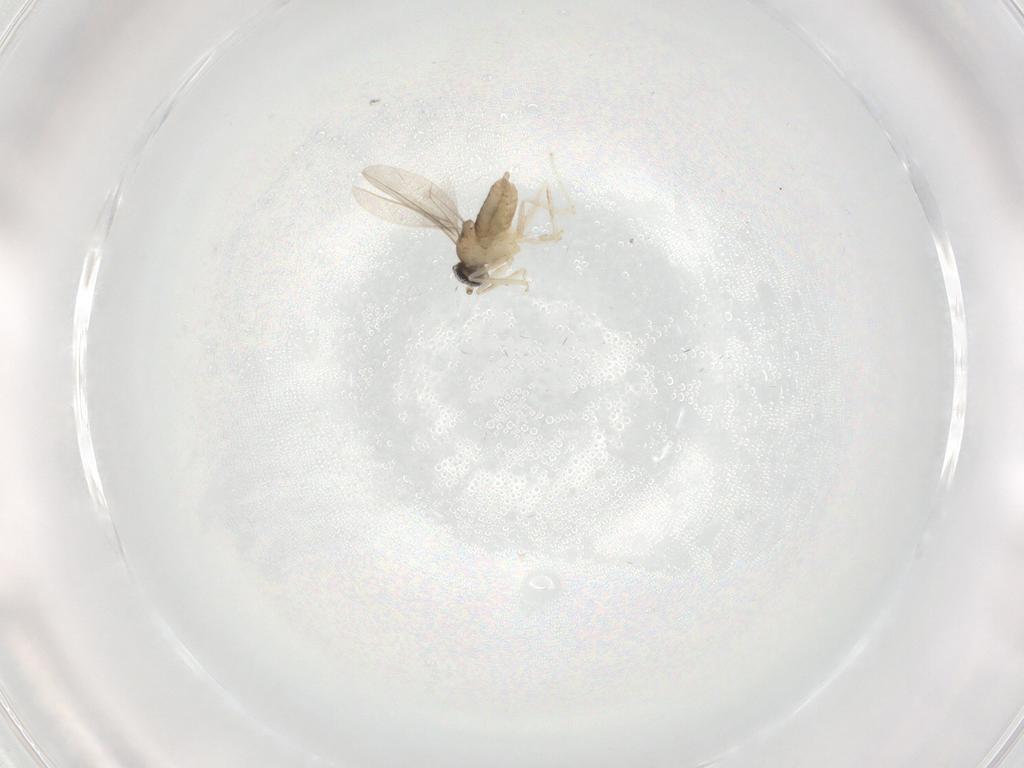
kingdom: Animalia
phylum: Arthropoda
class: Insecta
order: Diptera
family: Cecidomyiidae
